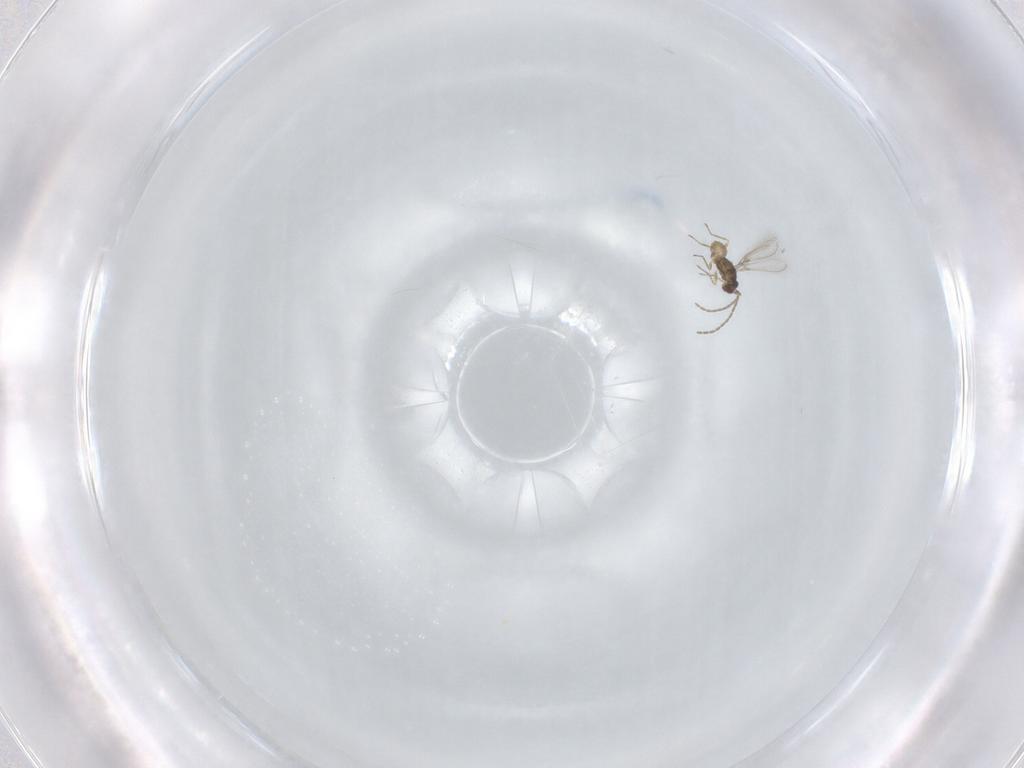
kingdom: Animalia
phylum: Arthropoda
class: Insecta
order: Hymenoptera
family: Mymaridae
